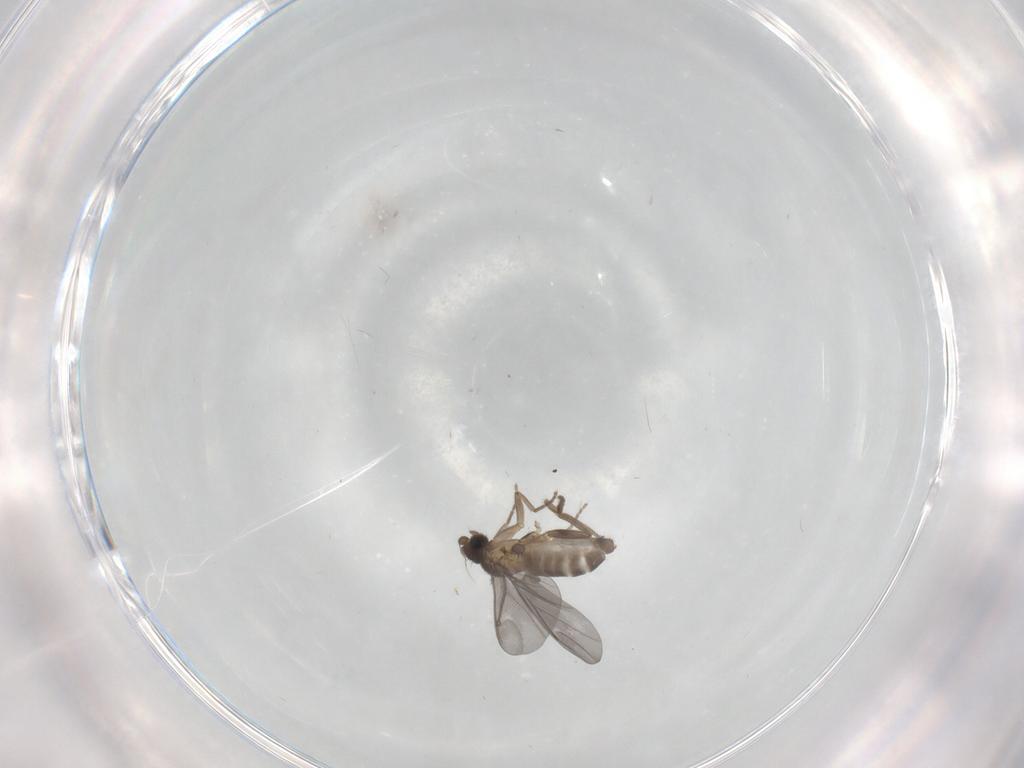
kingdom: Animalia
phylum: Arthropoda
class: Insecta
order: Diptera
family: Phoridae
